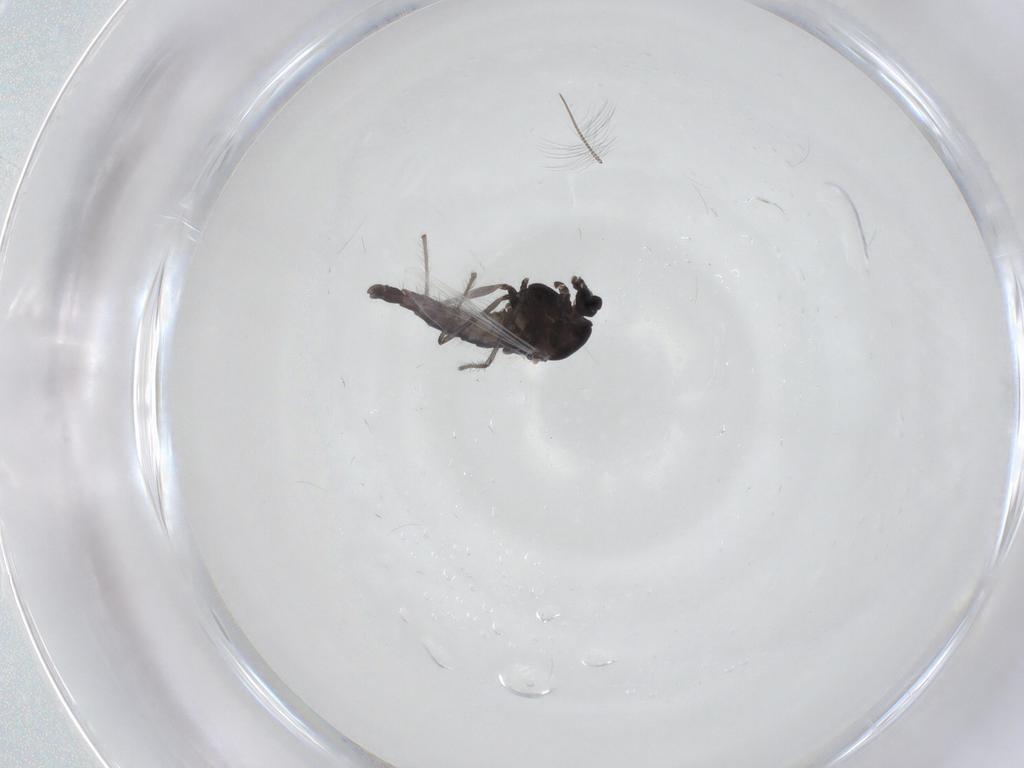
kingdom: Animalia
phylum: Arthropoda
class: Insecta
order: Diptera
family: Chironomidae
